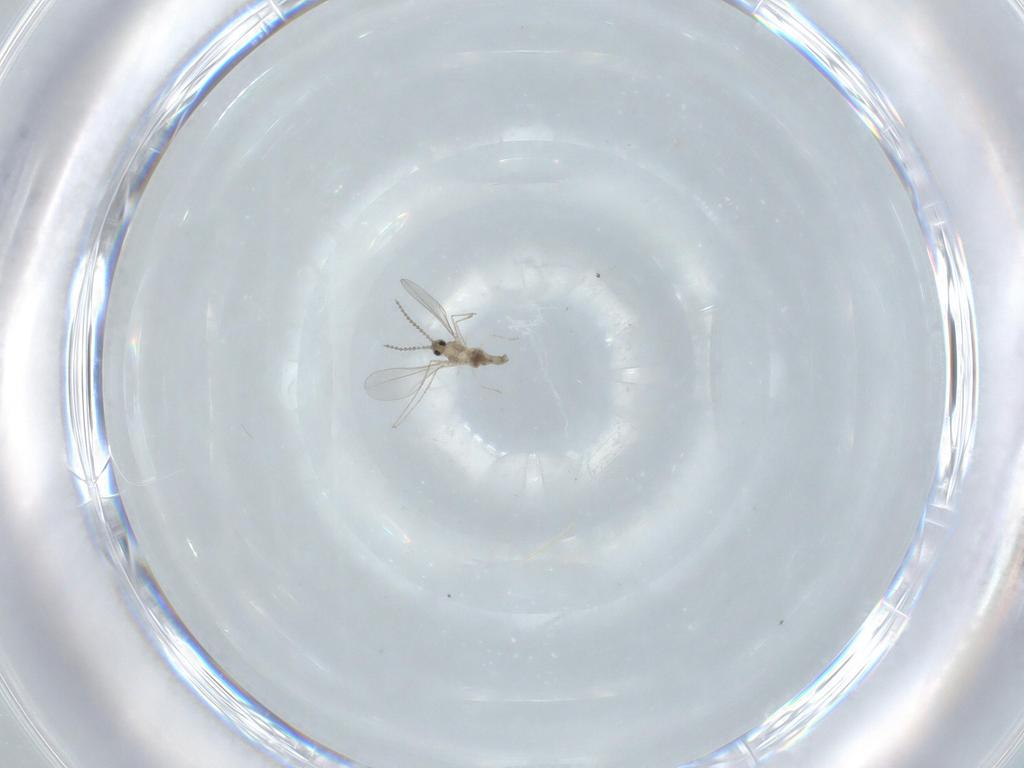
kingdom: Animalia
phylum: Arthropoda
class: Insecta
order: Diptera
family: Cecidomyiidae
